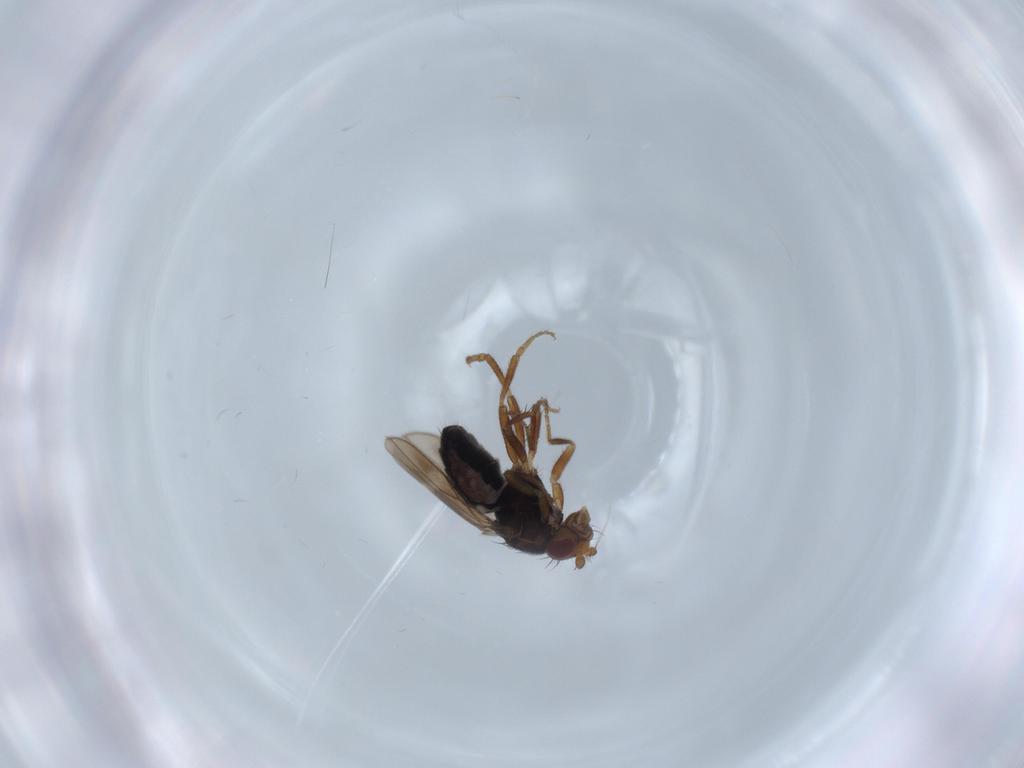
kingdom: Animalia
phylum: Arthropoda
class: Insecta
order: Diptera
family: Sphaeroceridae
